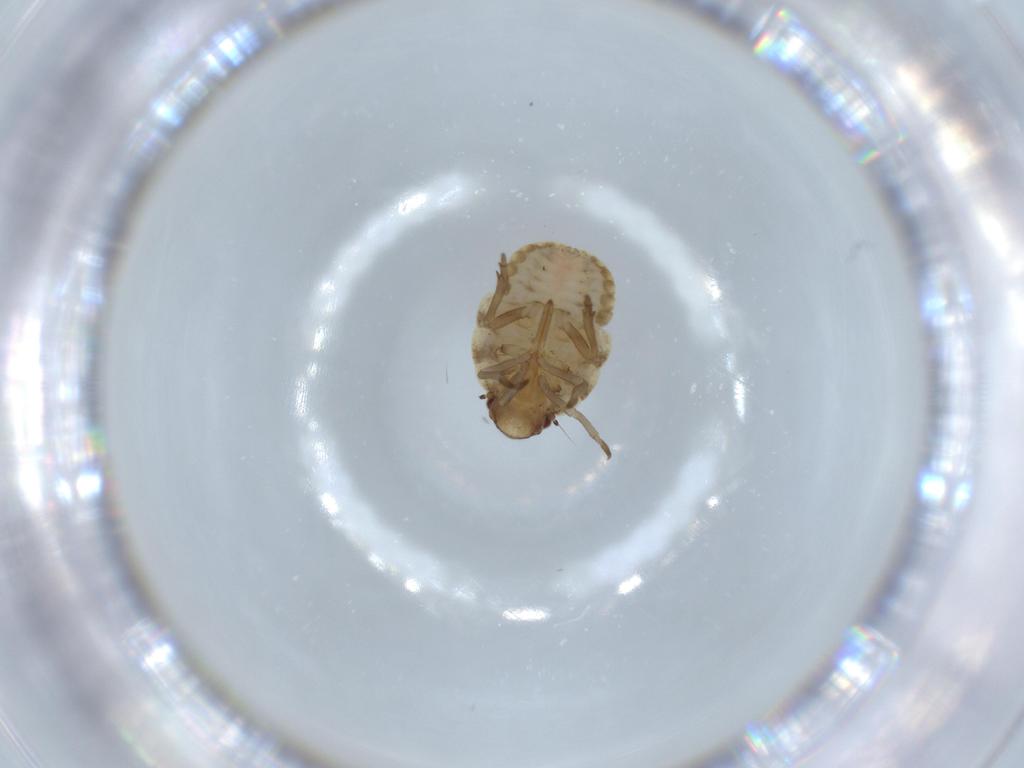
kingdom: Animalia
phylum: Arthropoda
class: Insecta
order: Hemiptera
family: Flatidae
